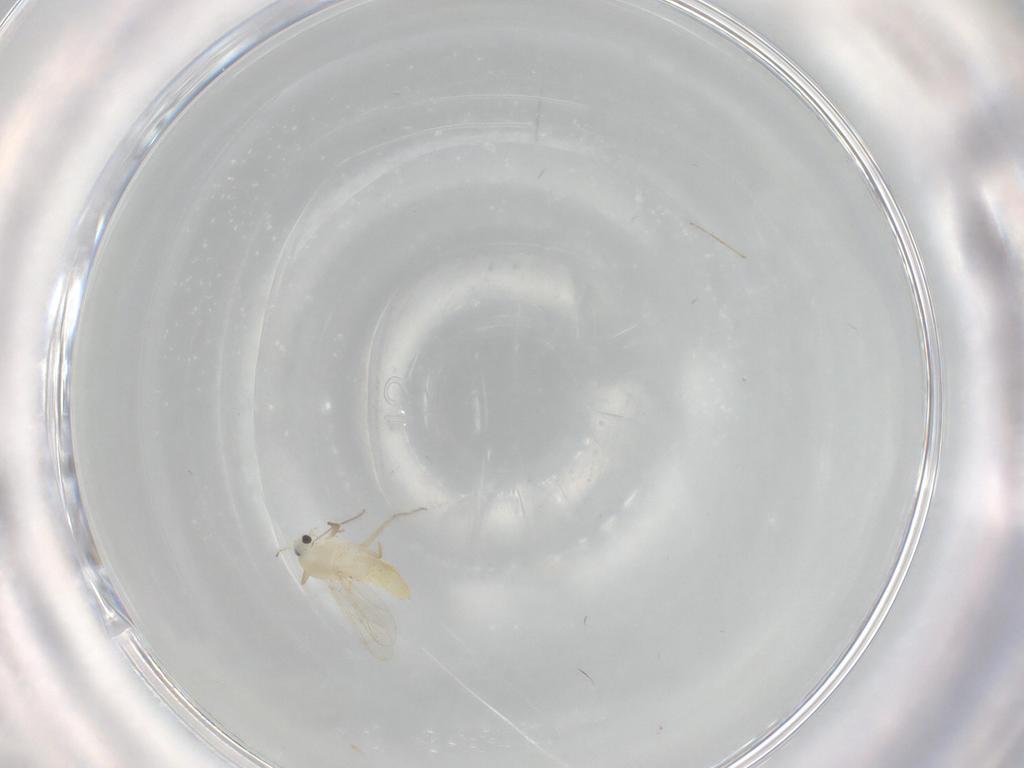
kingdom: Animalia
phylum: Arthropoda
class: Insecta
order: Diptera
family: Chironomidae
